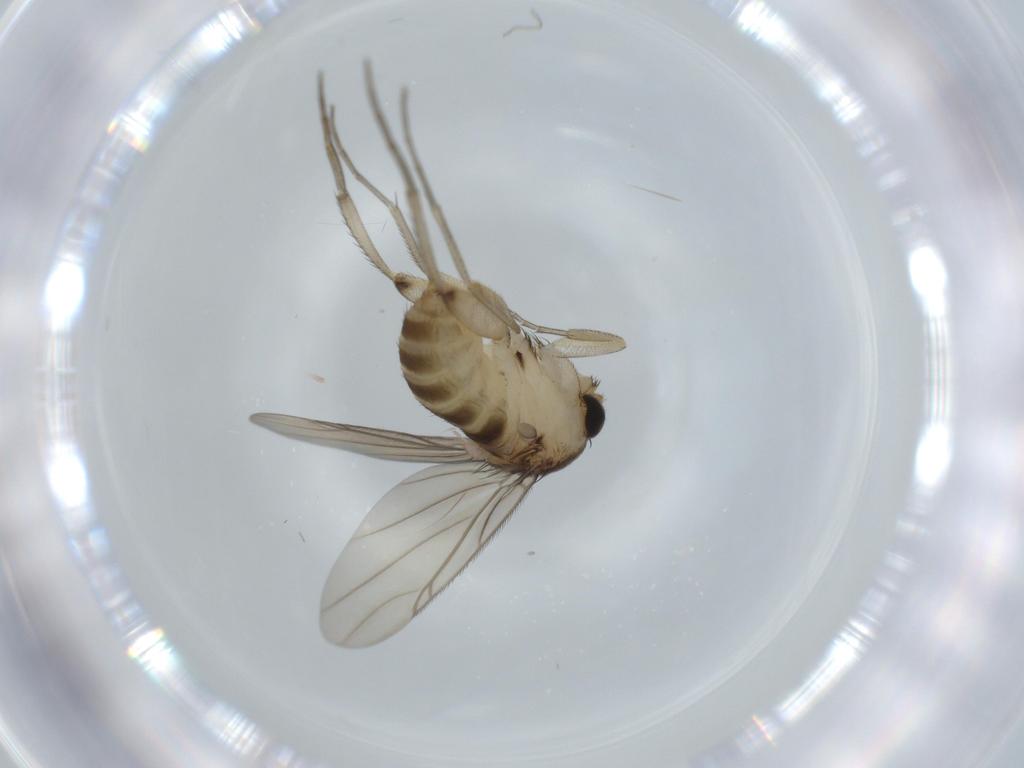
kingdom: Animalia
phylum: Arthropoda
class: Insecta
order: Diptera
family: Phoridae
